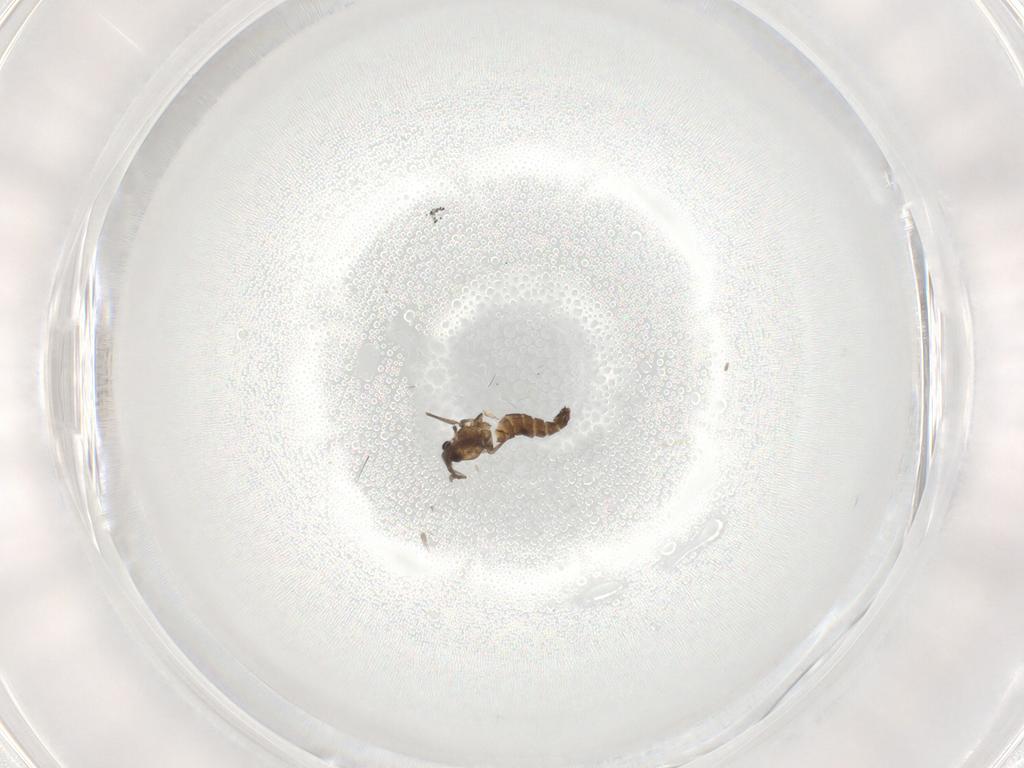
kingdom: Animalia
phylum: Arthropoda
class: Insecta
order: Diptera
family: Chironomidae
